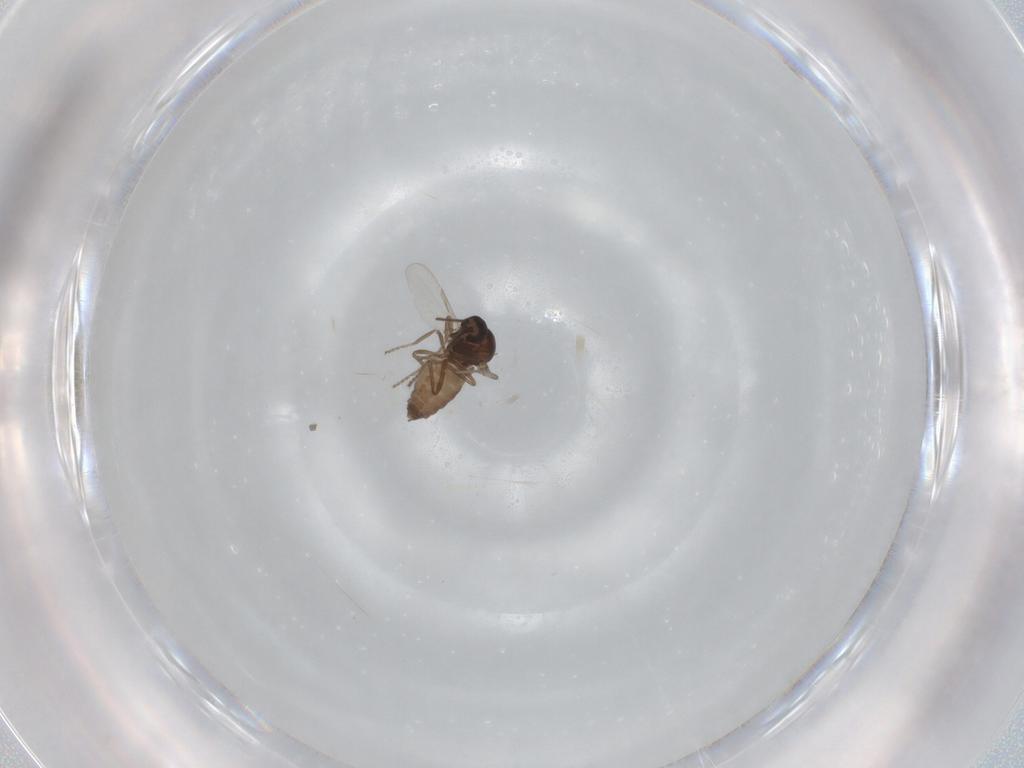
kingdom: Animalia
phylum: Arthropoda
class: Insecta
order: Diptera
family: Ceratopogonidae
